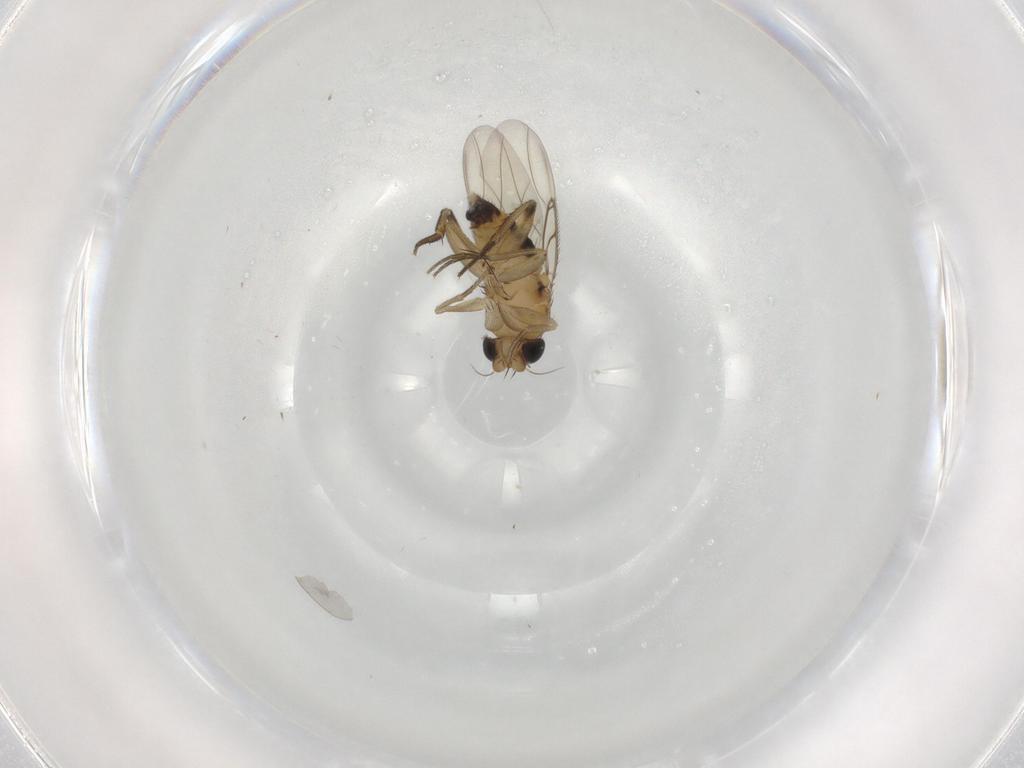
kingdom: Animalia
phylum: Arthropoda
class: Insecta
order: Diptera
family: Phoridae
